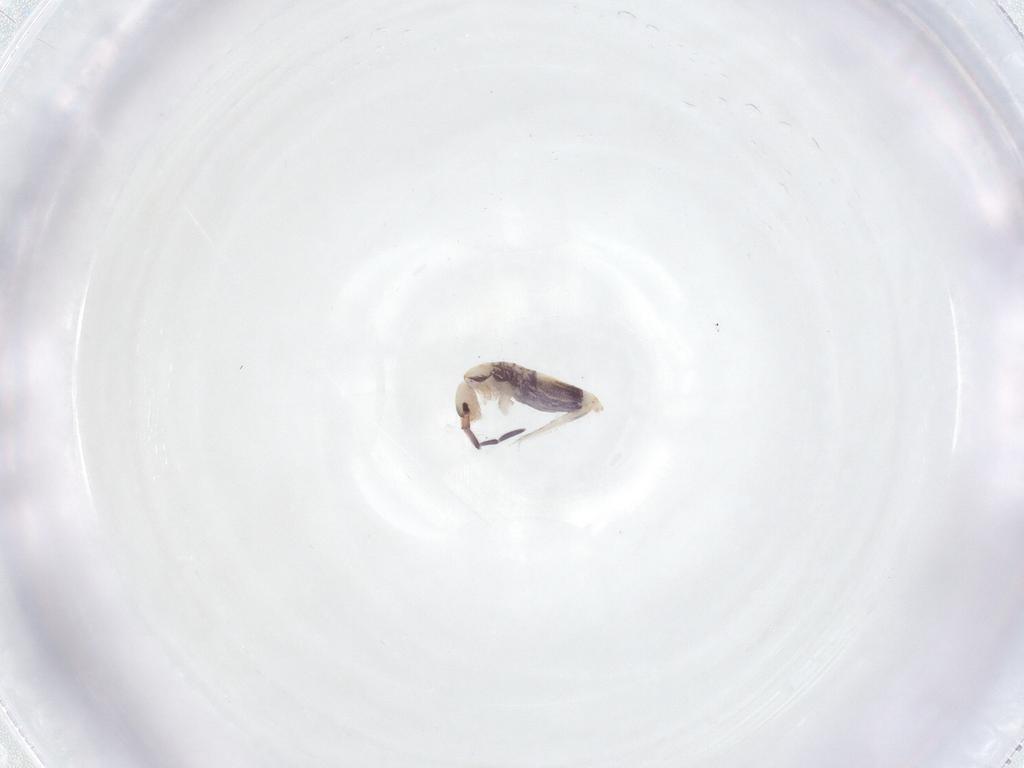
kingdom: Animalia
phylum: Arthropoda
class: Collembola
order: Entomobryomorpha
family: Entomobryidae
